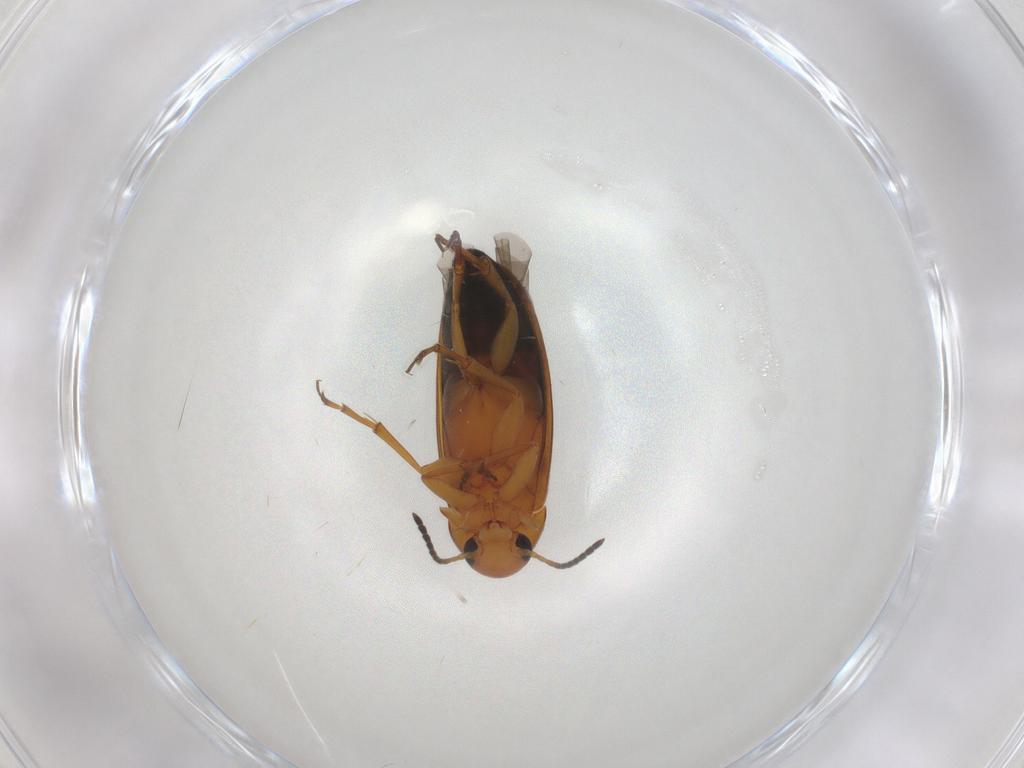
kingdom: Animalia
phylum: Arthropoda
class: Insecta
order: Coleoptera
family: Scraptiidae
